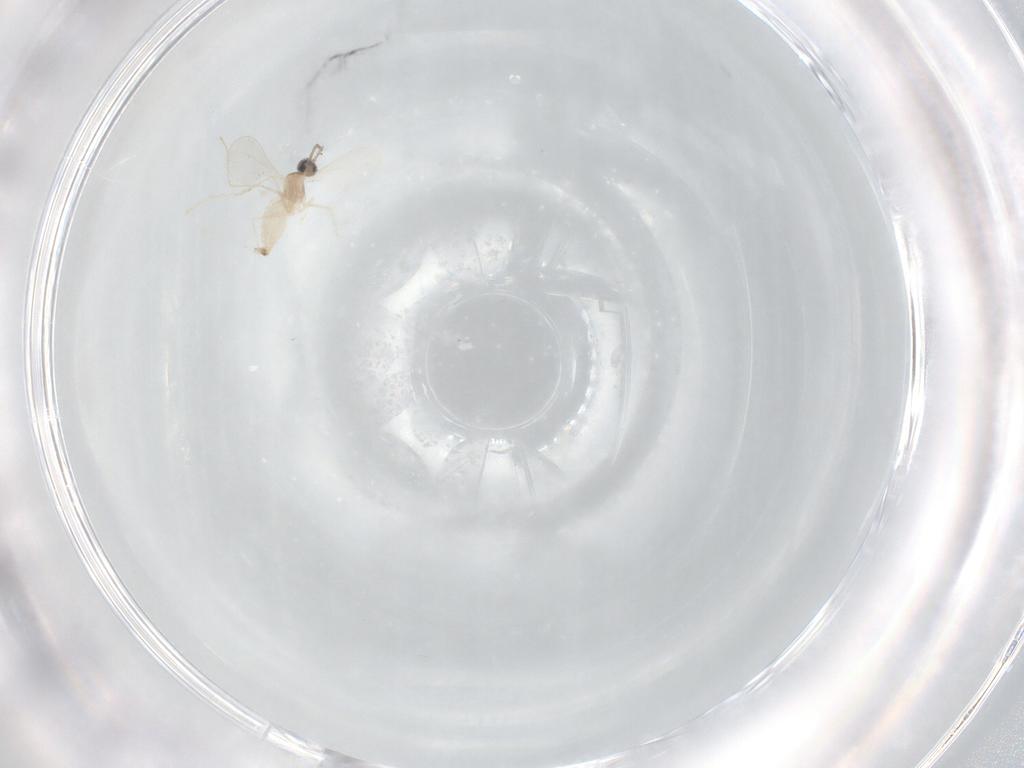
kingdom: Animalia
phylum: Arthropoda
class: Insecta
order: Diptera
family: Cecidomyiidae
